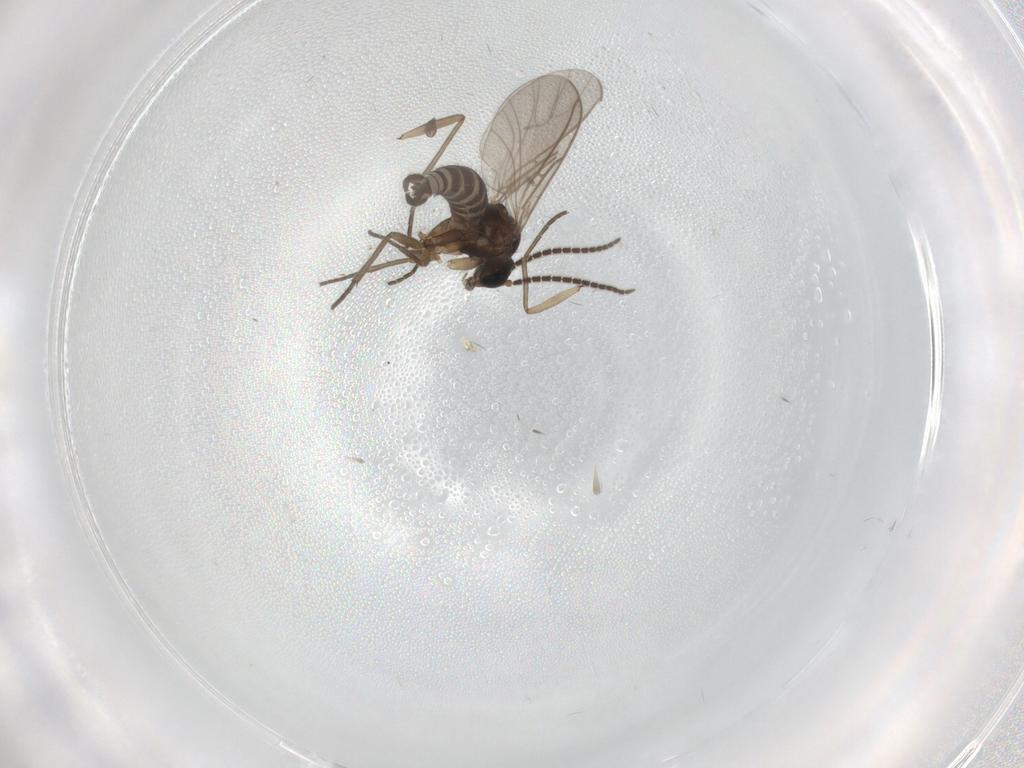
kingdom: Animalia
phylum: Arthropoda
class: Insecta
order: Diptera
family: Sciaridae
